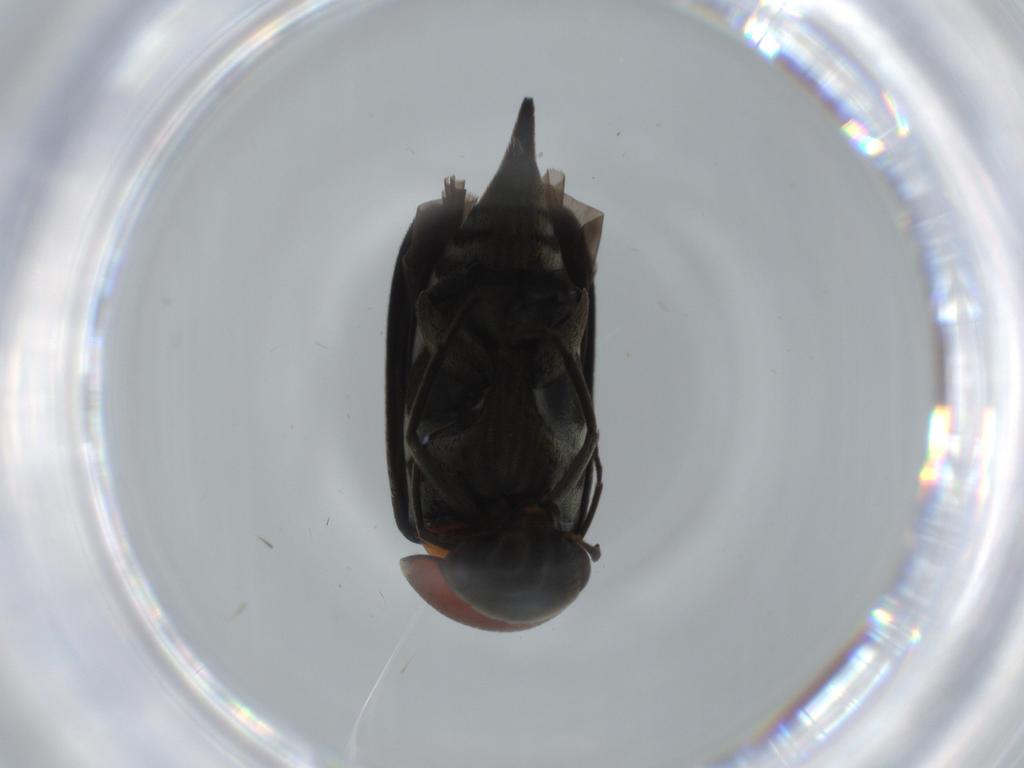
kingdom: Animalia
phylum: Arthropoda
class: Insecta
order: Coleoptera
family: Mordellidae
